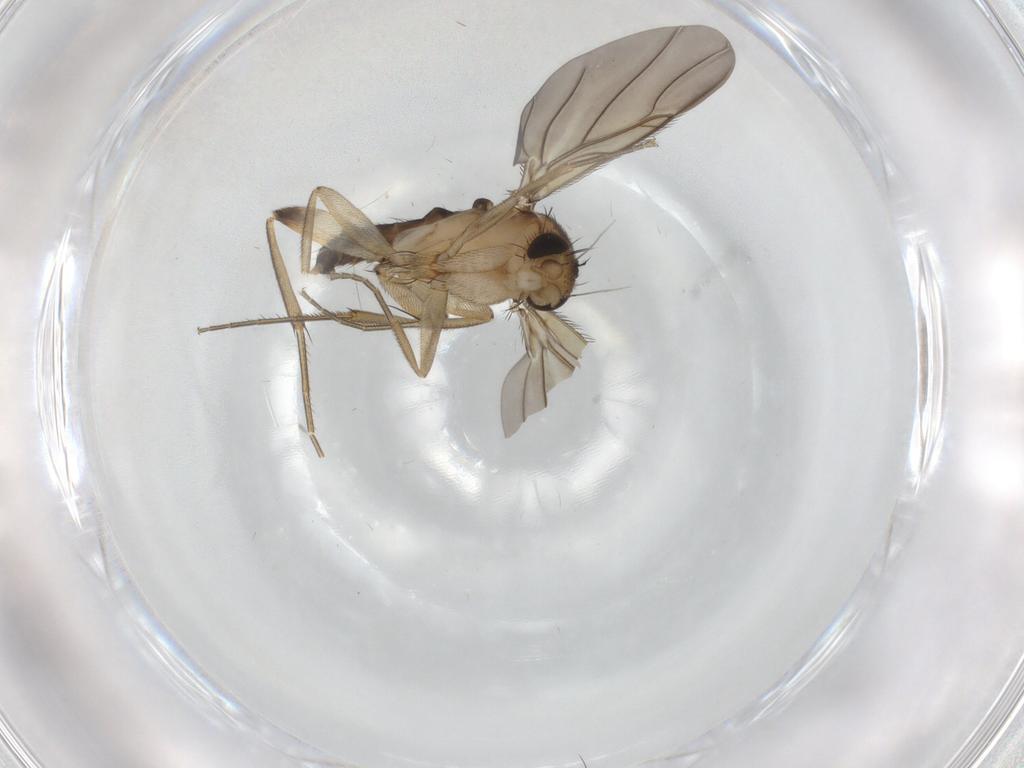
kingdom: Animalia
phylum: Arthropoda
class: Insecta
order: Diptera
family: Phoridae
